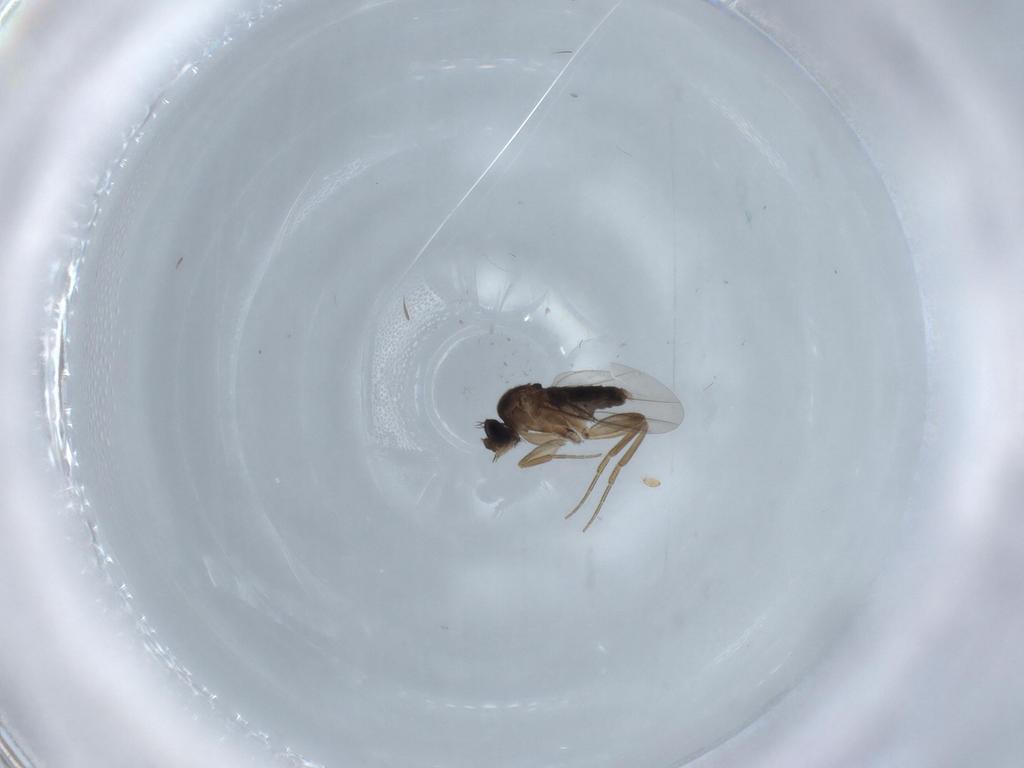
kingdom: Animalia
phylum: Arthropoda
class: Insecta
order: Diptera
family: Phoridae
